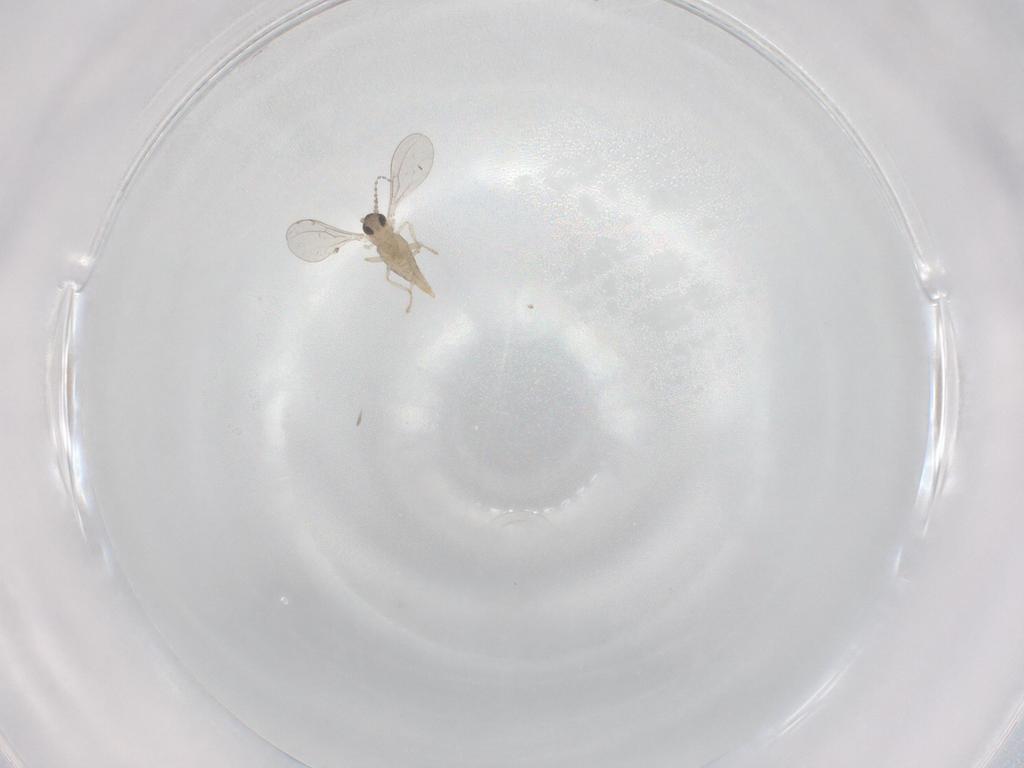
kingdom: Animalia
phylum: Arthropoda
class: Insecta
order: Diptera
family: Cecidomyiidae
